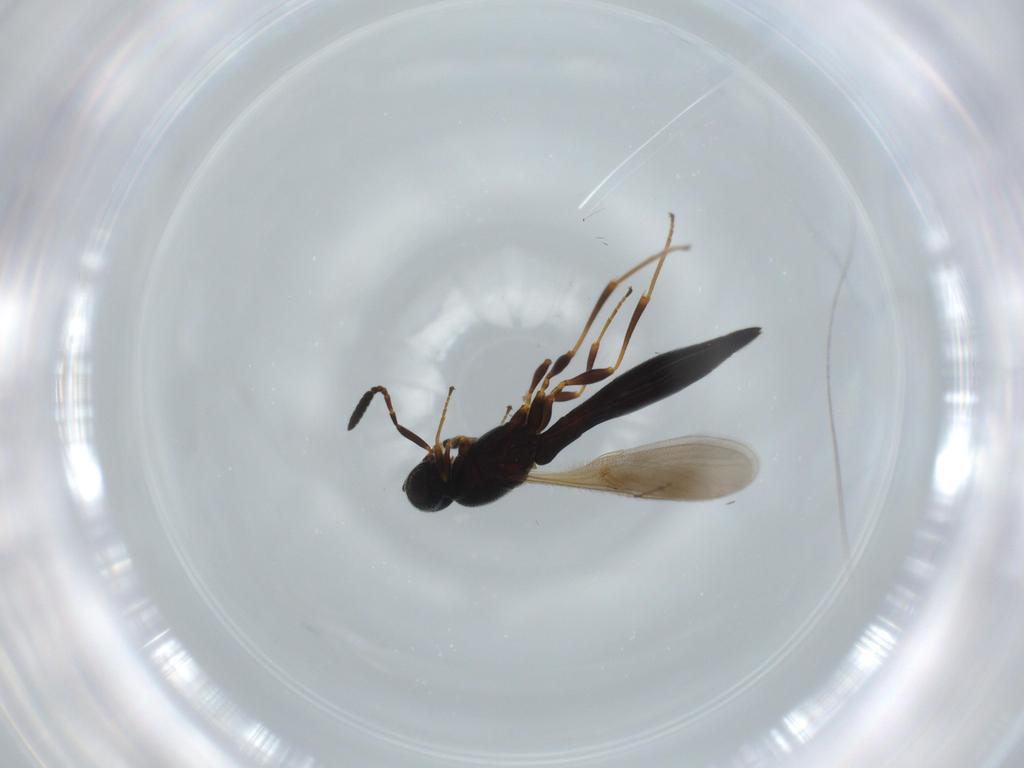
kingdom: Animalia
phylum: Arthropoda
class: Insecta
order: Hymenoptera
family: Scelionidae
